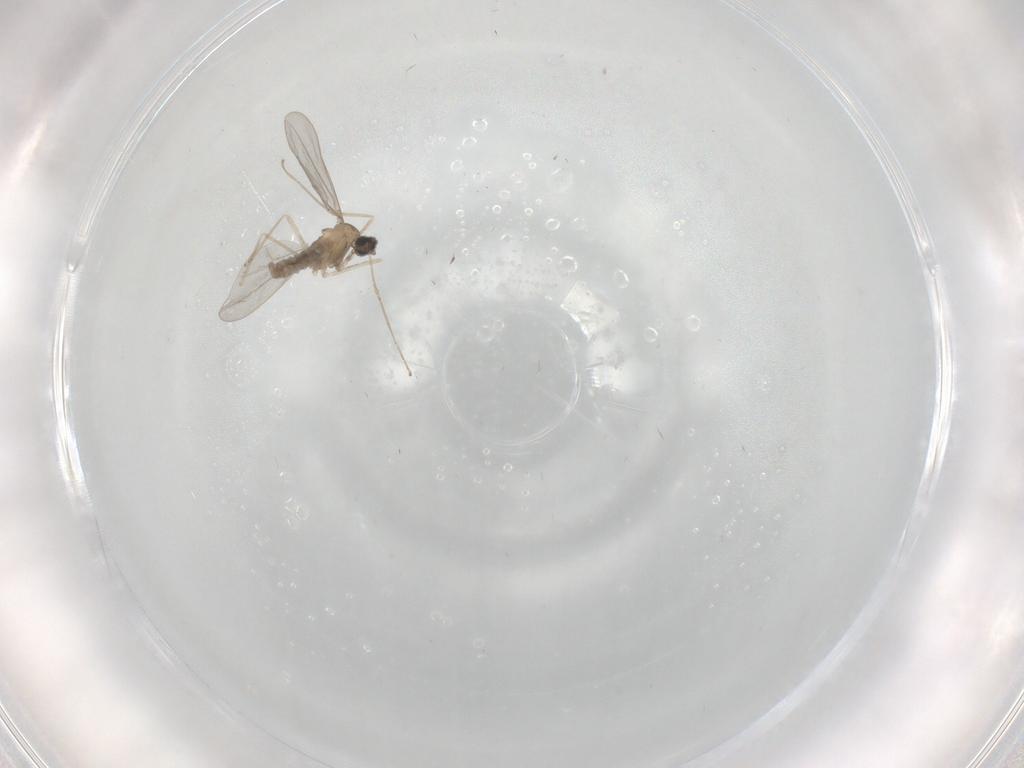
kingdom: Animalia
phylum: Arthropoda
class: Insecta
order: Diptera
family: Cecidomyiidae
